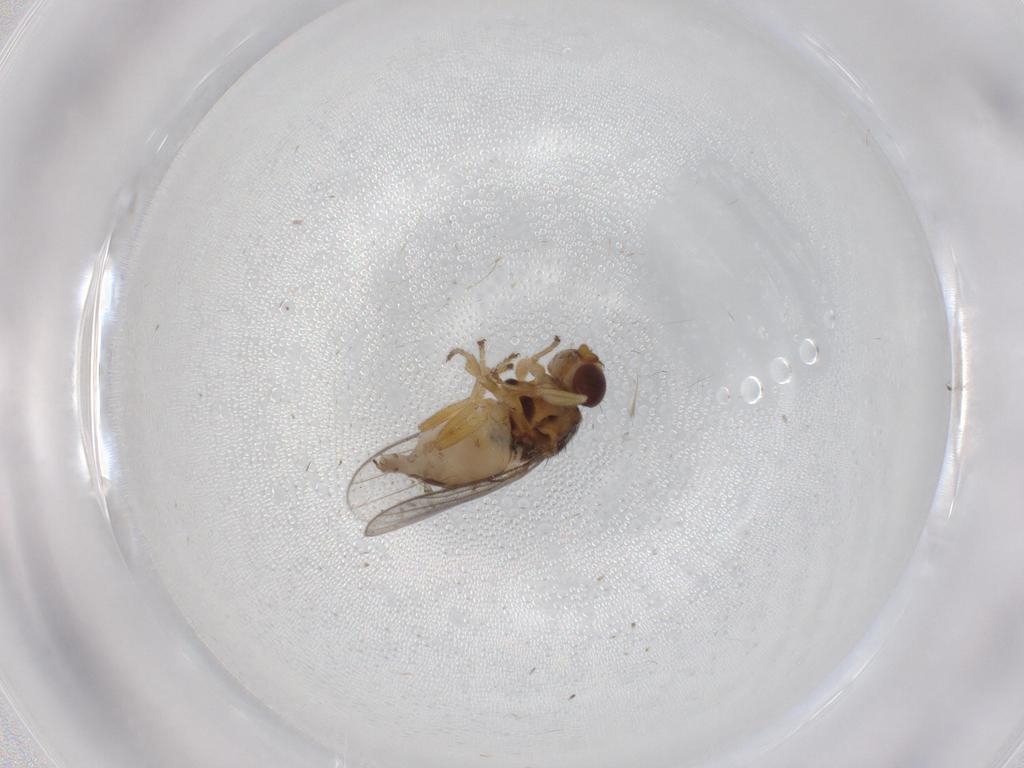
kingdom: Animalia
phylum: Arthropoda
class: Insecta
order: Diptera
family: Chloropidae
